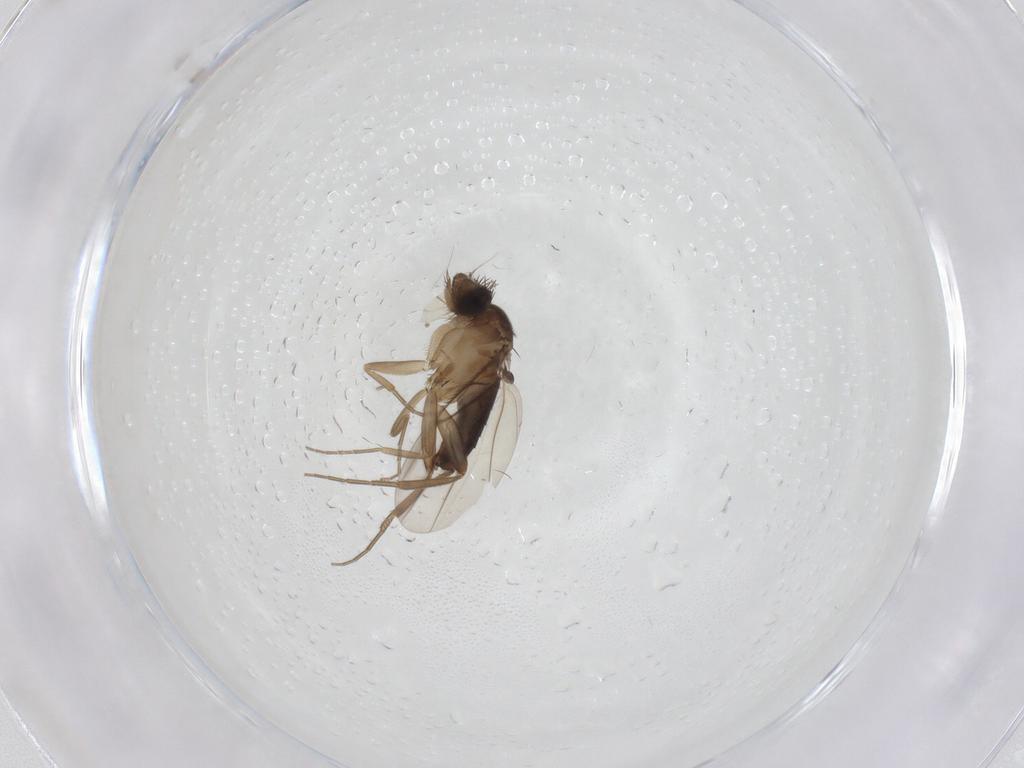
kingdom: Animalia
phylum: Arthropoda
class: Insecta
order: Diptera
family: Phoridae
